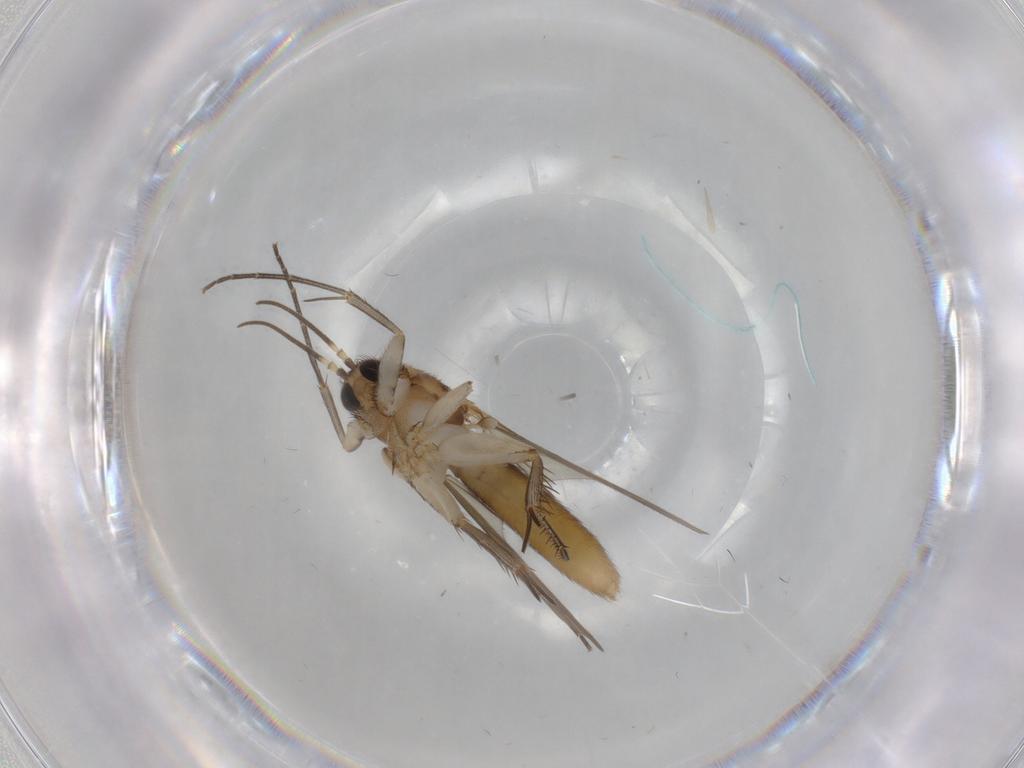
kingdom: Animalia
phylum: Arthropoda
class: Insecta
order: Diptera
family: Mycetophilidae
